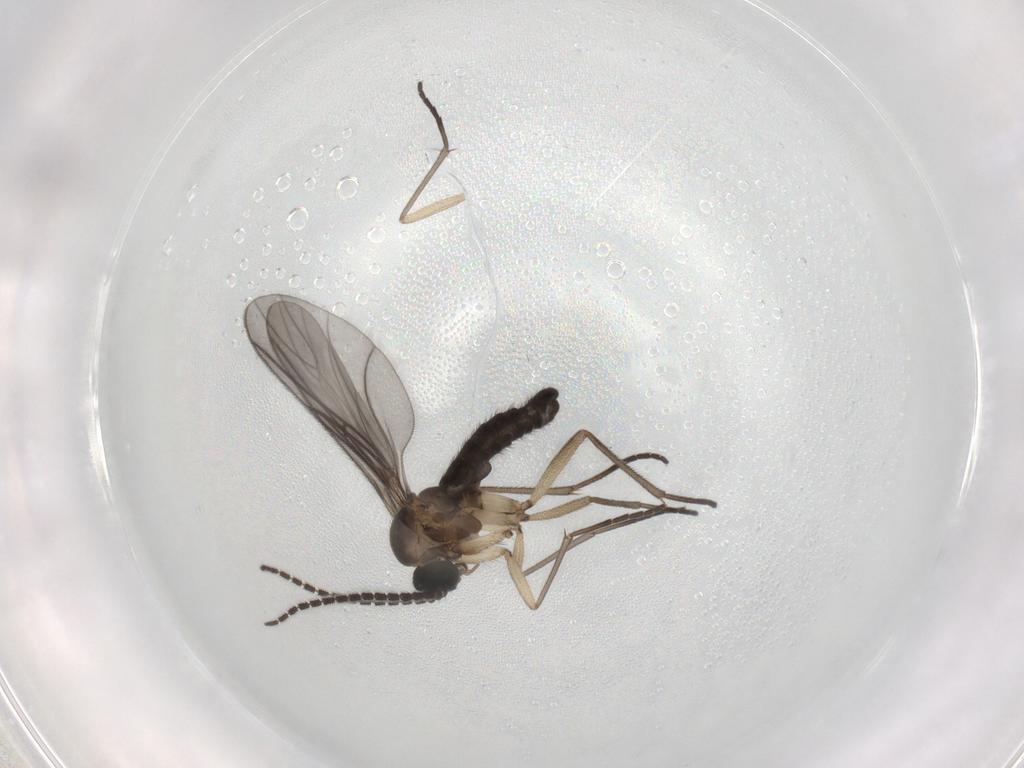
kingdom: Animalia
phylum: Arthropoda
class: Insecta
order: Diptera
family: Sciaridae
